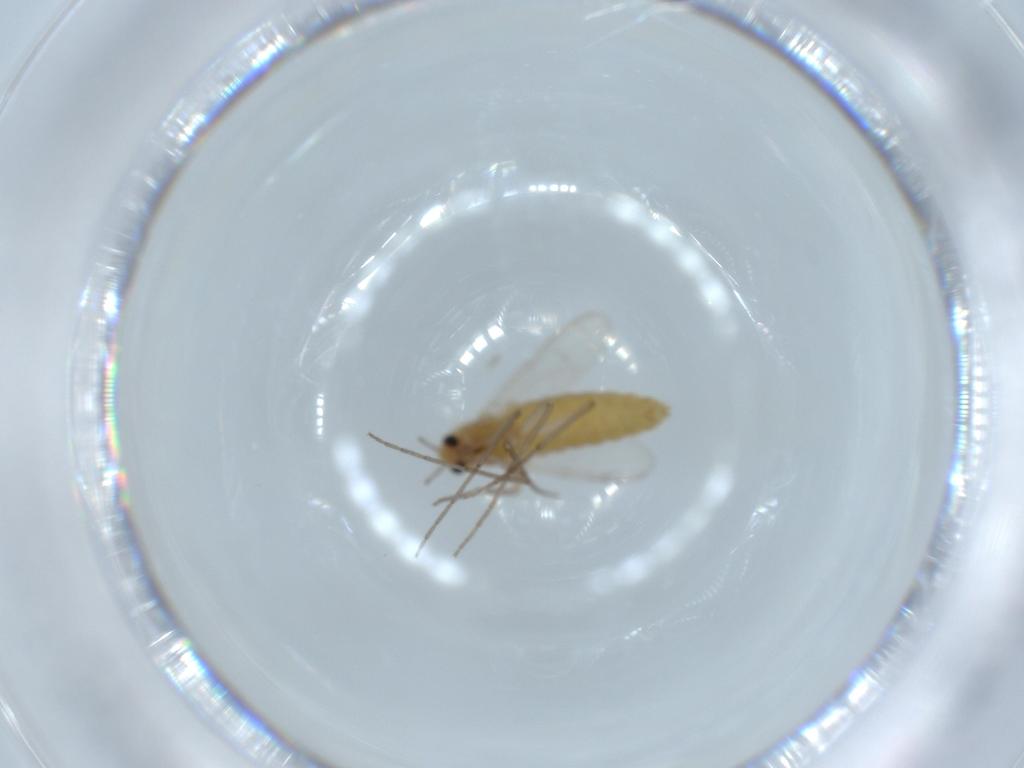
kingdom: Animalia
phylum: Arthropoda
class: Insecta
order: Diptera
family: Chironomidae
